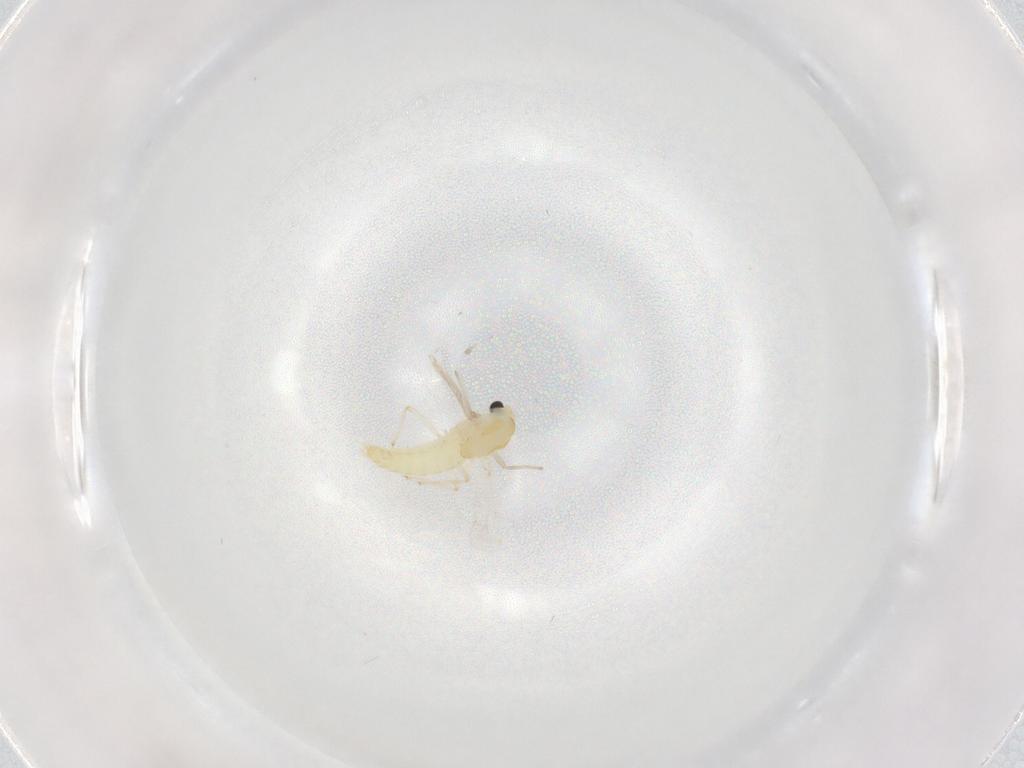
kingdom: Animalia
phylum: Arthropoda
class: Insecta
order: Diptera
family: Chironomidae
